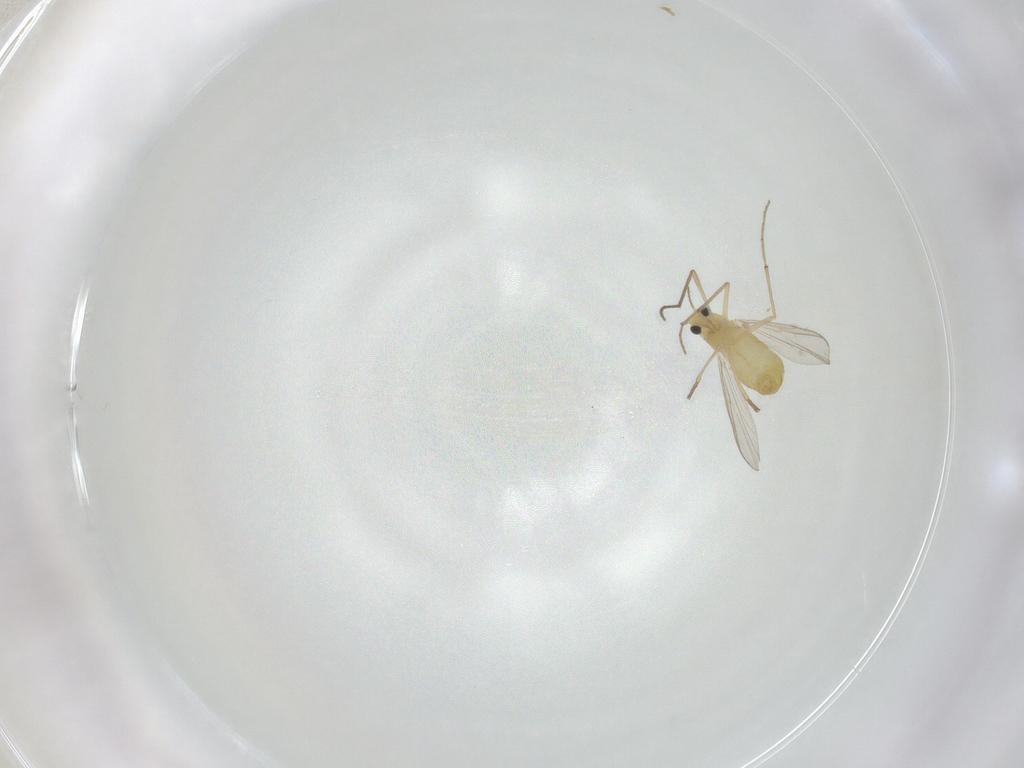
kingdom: Animalia
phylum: Arthropoda
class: Insecta
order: Diptera
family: Chironomidae
